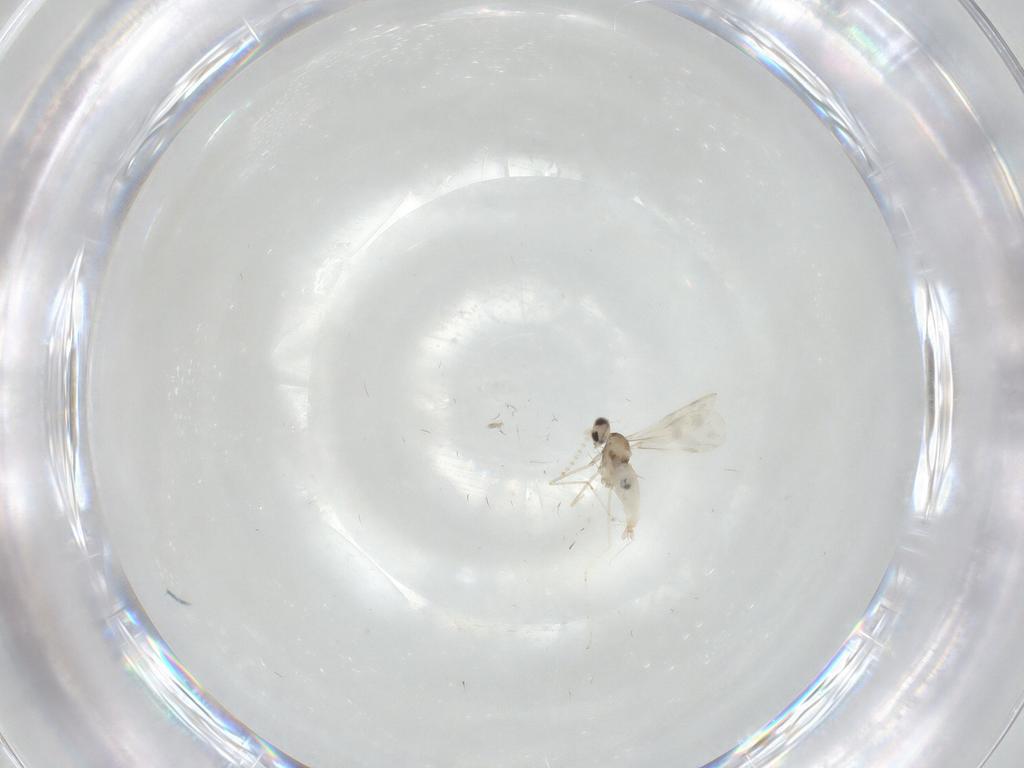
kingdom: Animalia
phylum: Arthropoda
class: Insecta
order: Diptera
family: Cecidomyiidae
